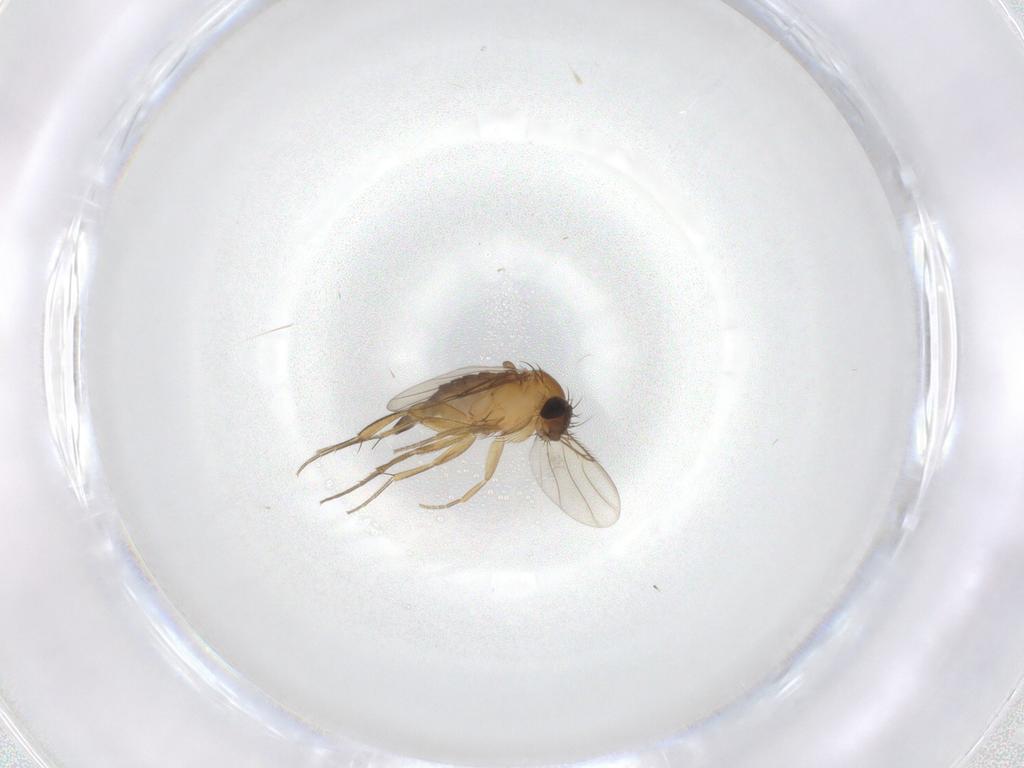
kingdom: Animalia
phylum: Arthropoda
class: Insecta
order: Diptera
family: Phoridae
